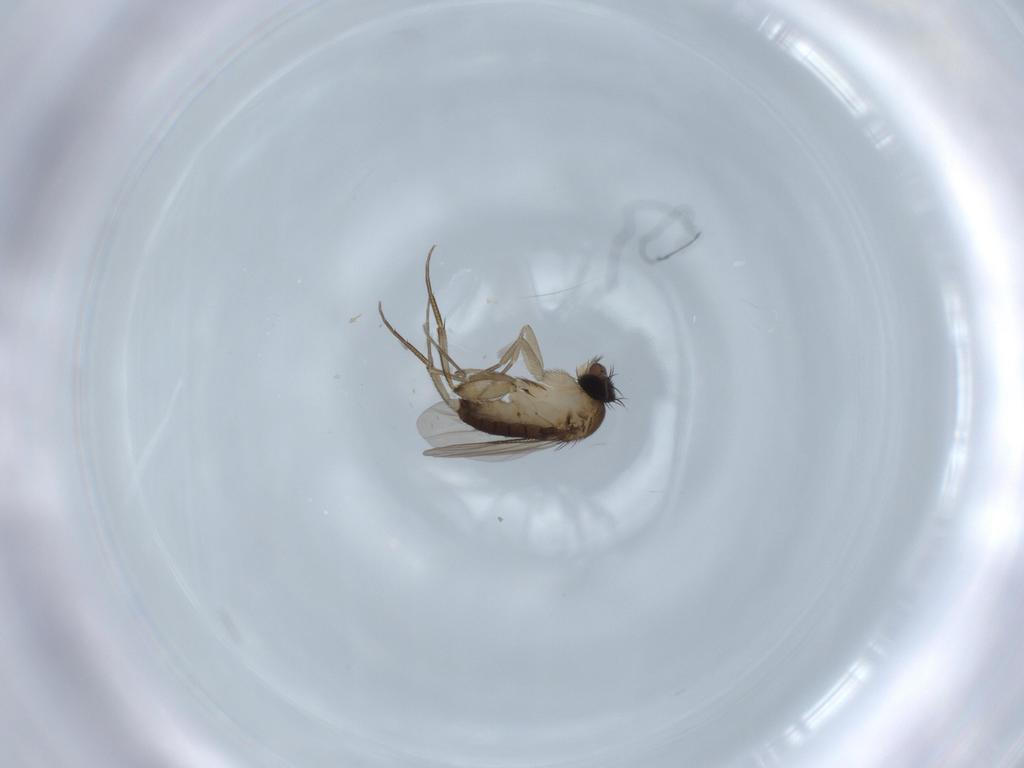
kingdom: Animalia
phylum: Arthropoda
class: Insecta
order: Diptera
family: Phoridae
